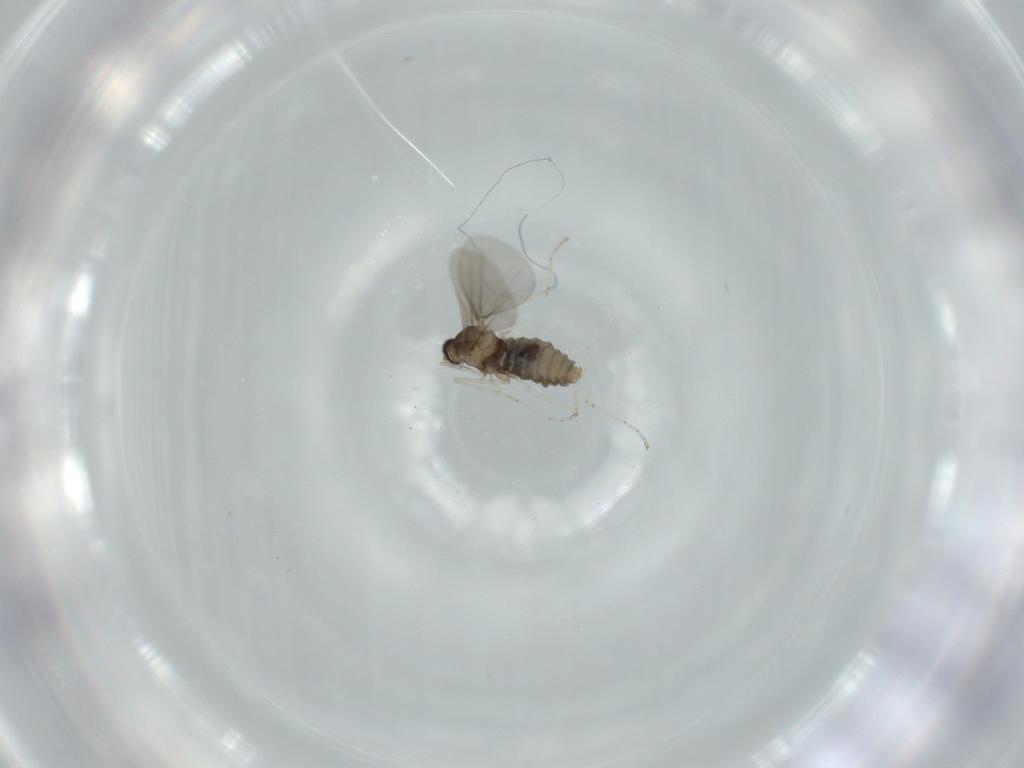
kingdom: Animalia
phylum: Arthropoda
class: Insecta
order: Diptera
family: Cecidomyiidae
